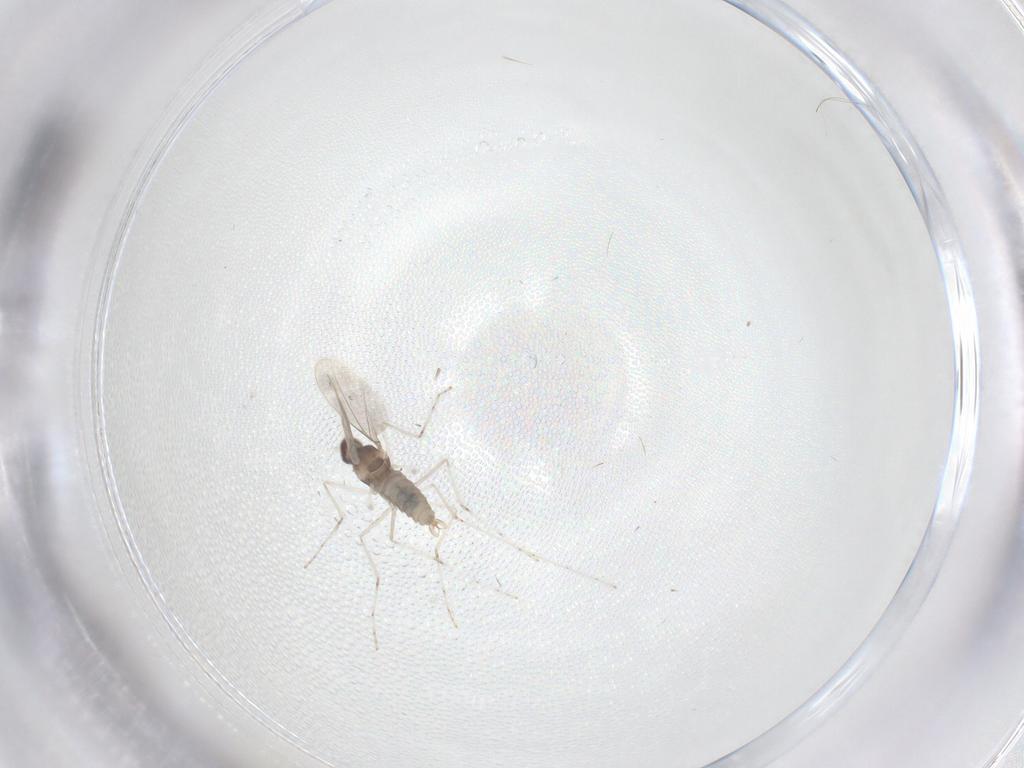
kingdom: Animalia
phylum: Arthropoda
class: Insecta
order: Diptera
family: Cecidomyiidae
